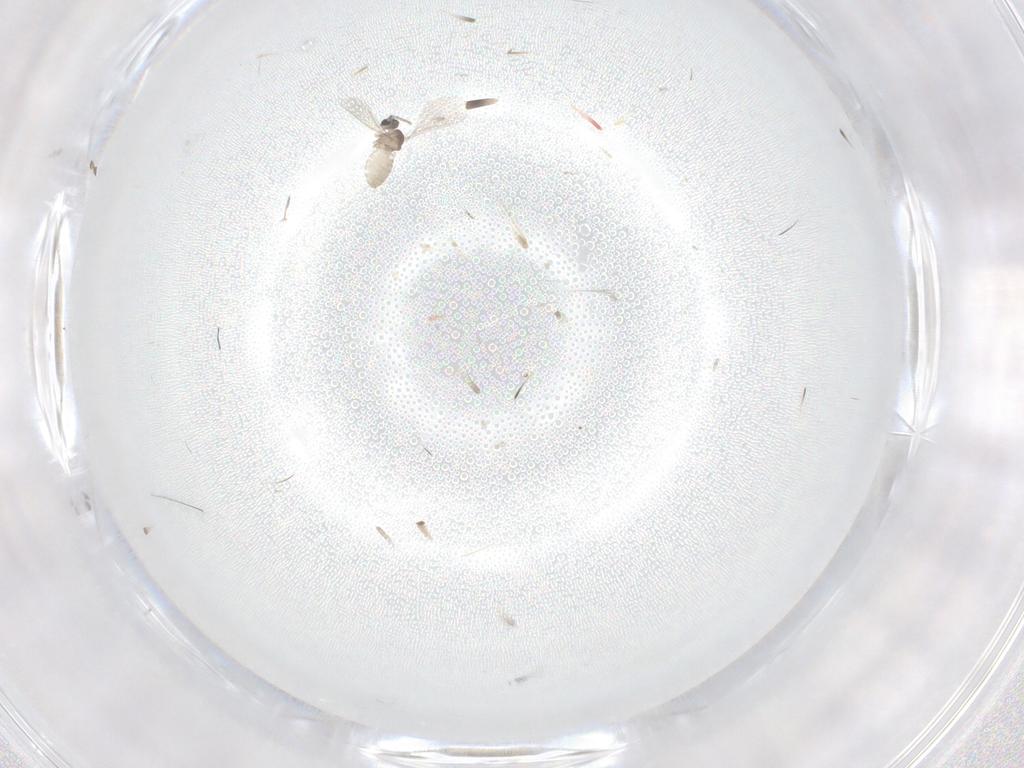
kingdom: Animalia
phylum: Arthropoda
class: Insecta
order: Diptera
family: Cecidomyiidae
